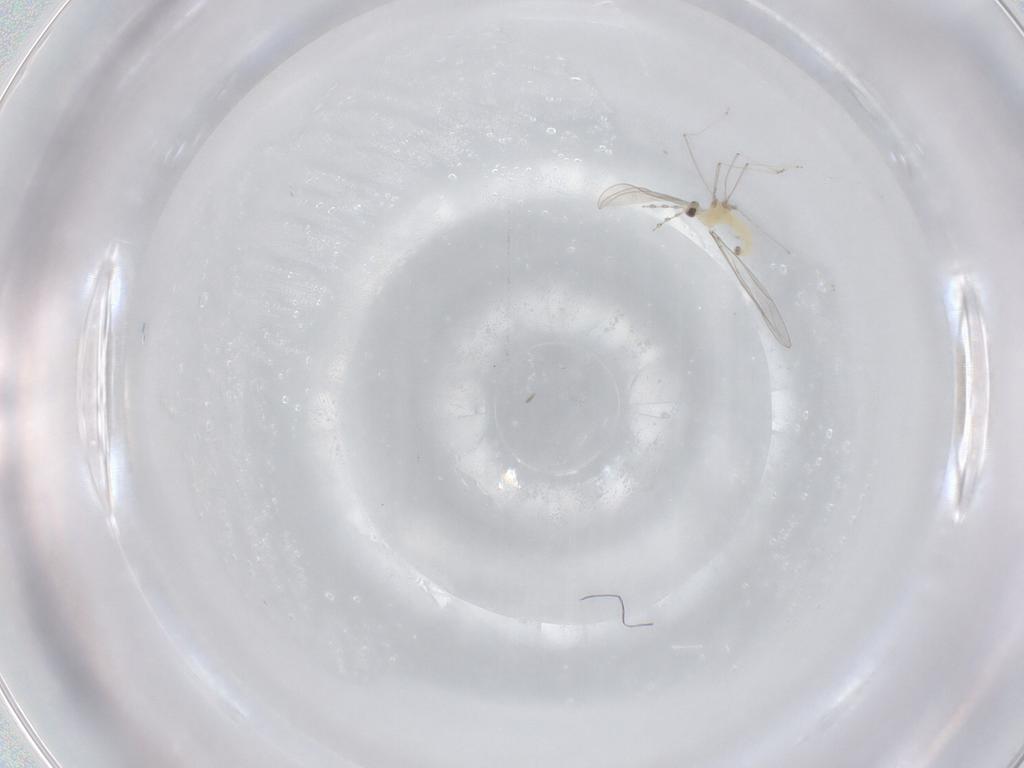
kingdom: Animalia
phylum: Arthropoda
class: Insecta
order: Diptera
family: Cecidomyiidae
